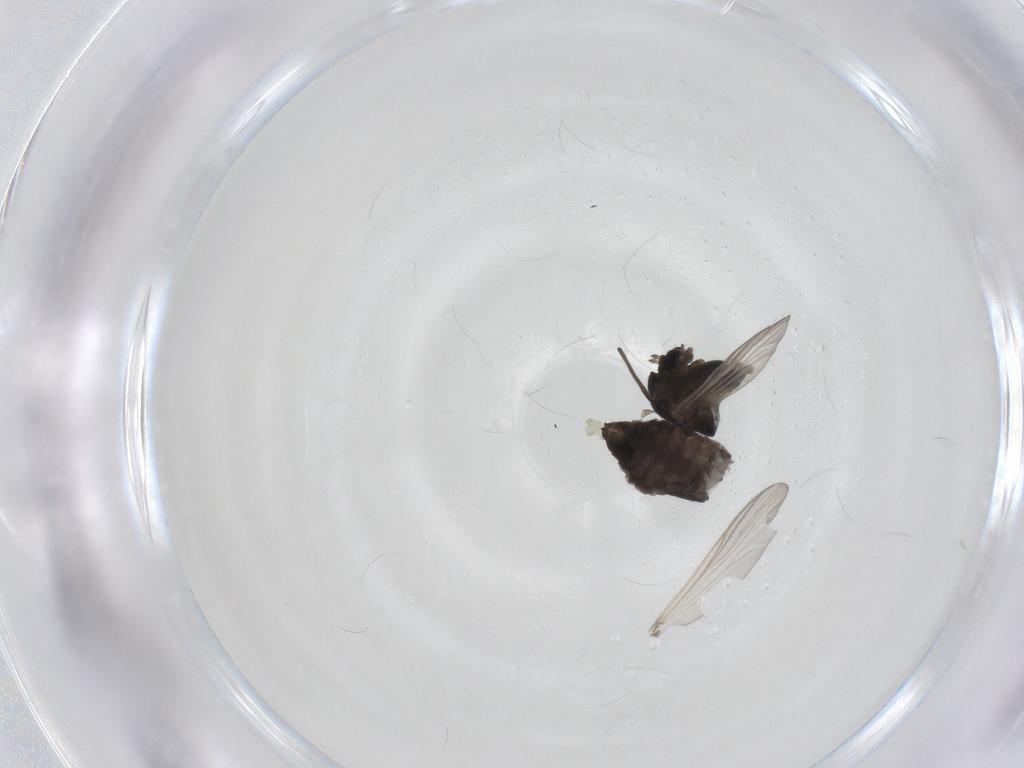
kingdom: Animalia
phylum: Arthropoda
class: Insecta
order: Diptera
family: Chironomidae
